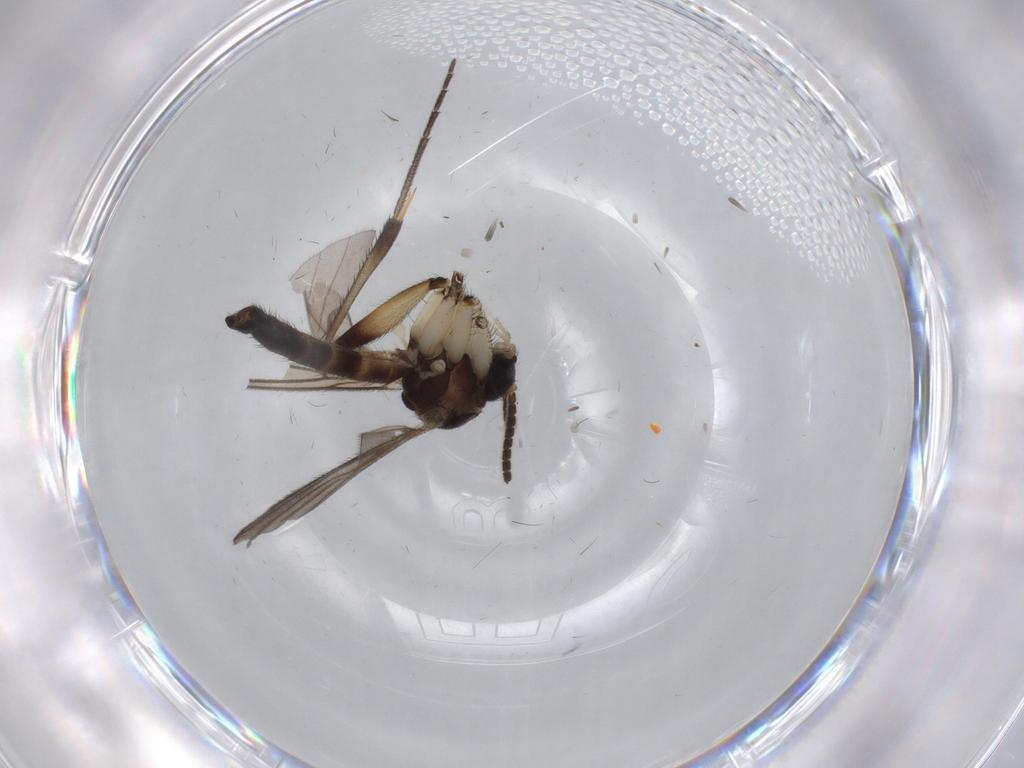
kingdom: Animalia
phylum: Arthropoda
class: Insecta
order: Diptera
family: Mycetophilidae
